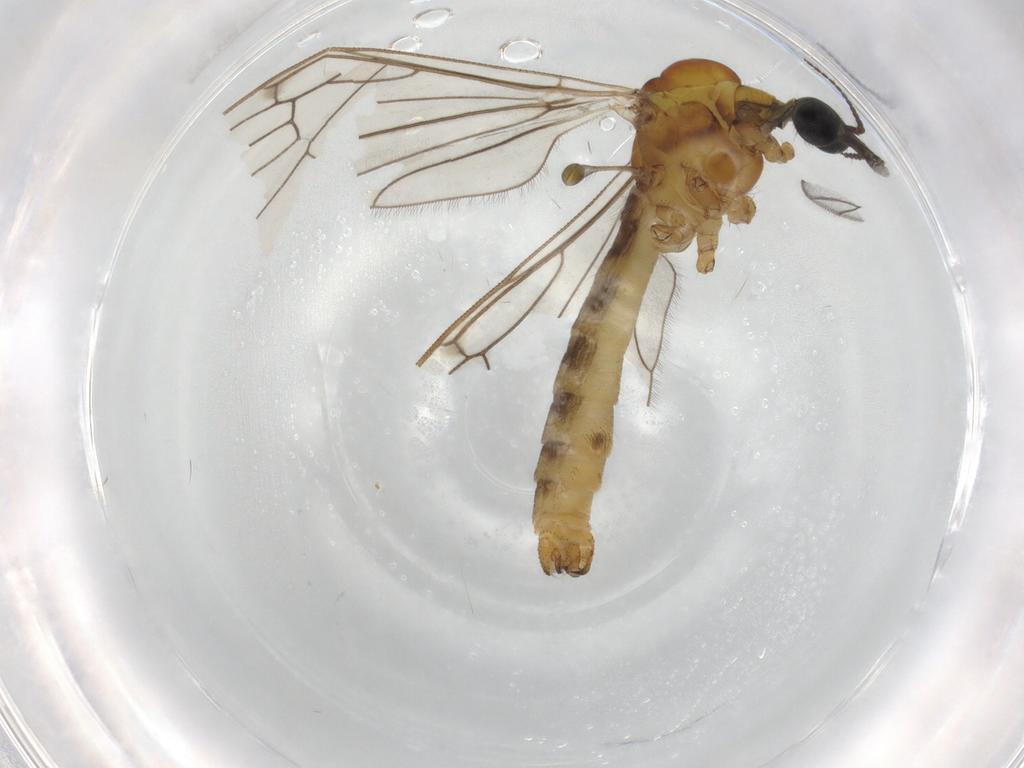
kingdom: Animalia
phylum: Arthropoda
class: Insecta
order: Diptera
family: Limoniidae
